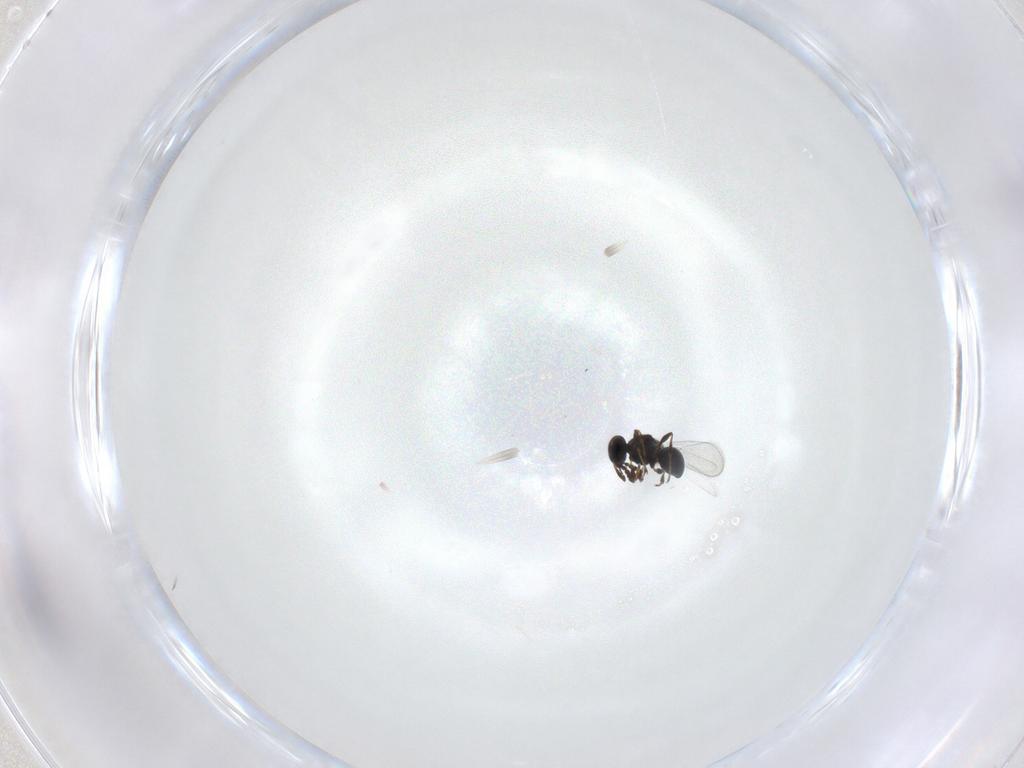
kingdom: Animalia
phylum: Arthropoda
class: Insecta
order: Hymenoptera
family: Platygastridae
